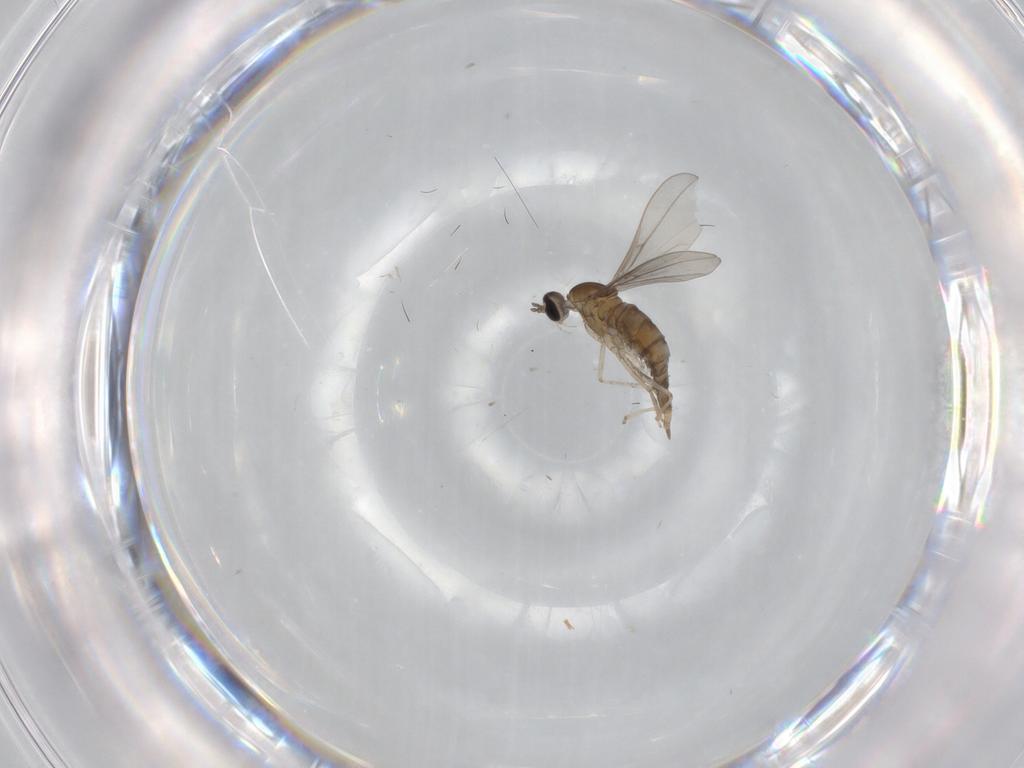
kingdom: Animalia
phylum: Arthropoda
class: Insecta
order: Diptera
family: Cecidomyiidae
